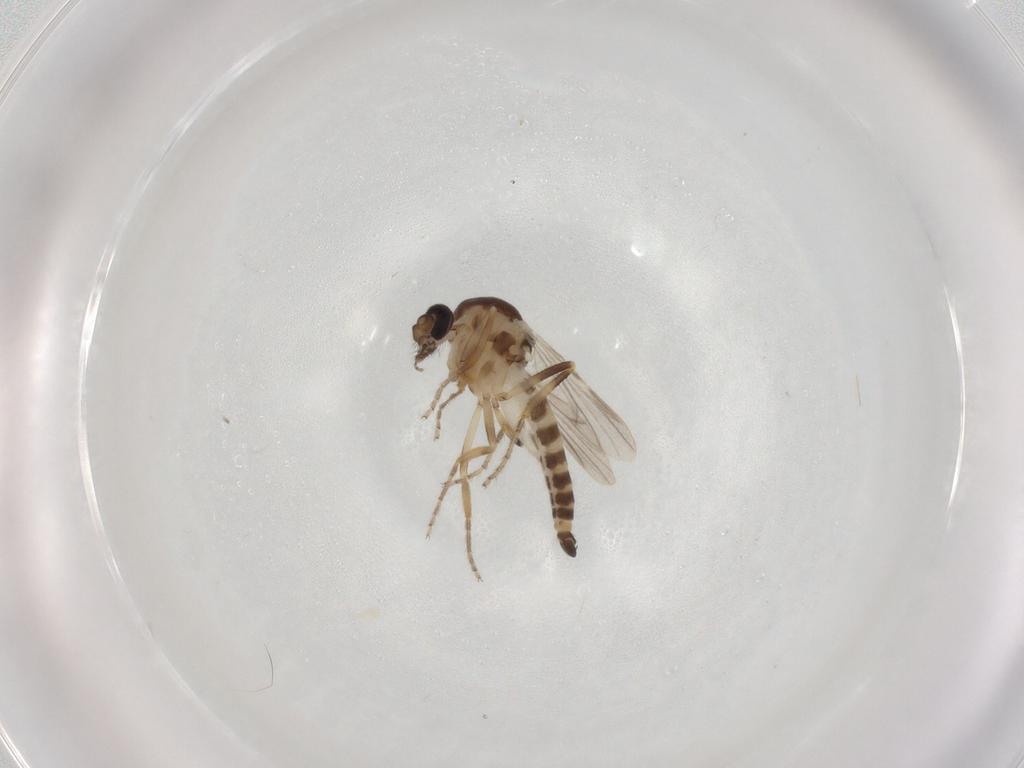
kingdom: Animalia
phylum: Arthropoda
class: Insecta
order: Diptera
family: Ceratopogonidae
